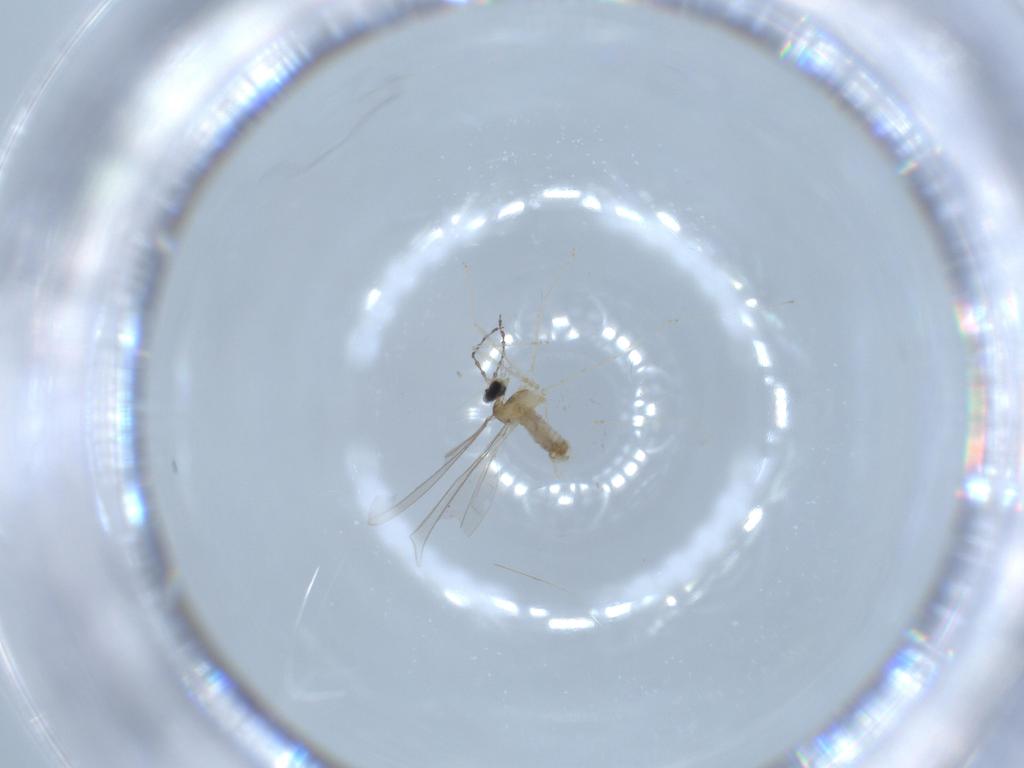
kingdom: Animalia
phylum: Arthropoda
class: Insecta
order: Diptera
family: Cecidomyiidae
